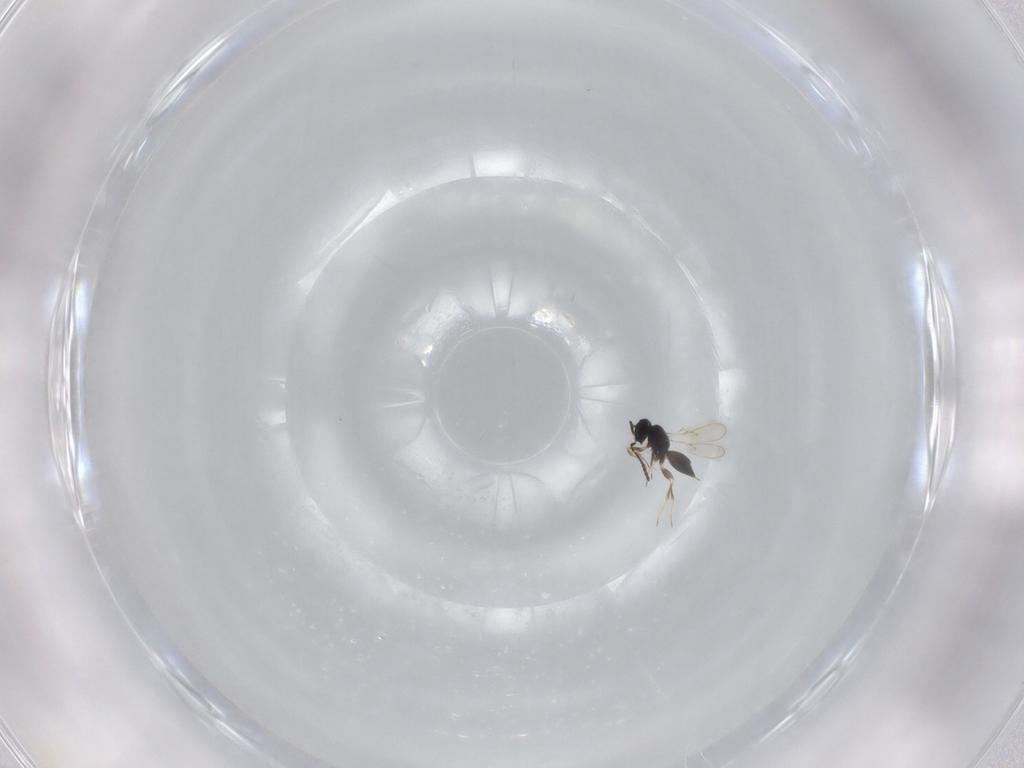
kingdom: Animalia
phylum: Arthropoda
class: Insecta
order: Hymenoptera
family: Scelionidae
